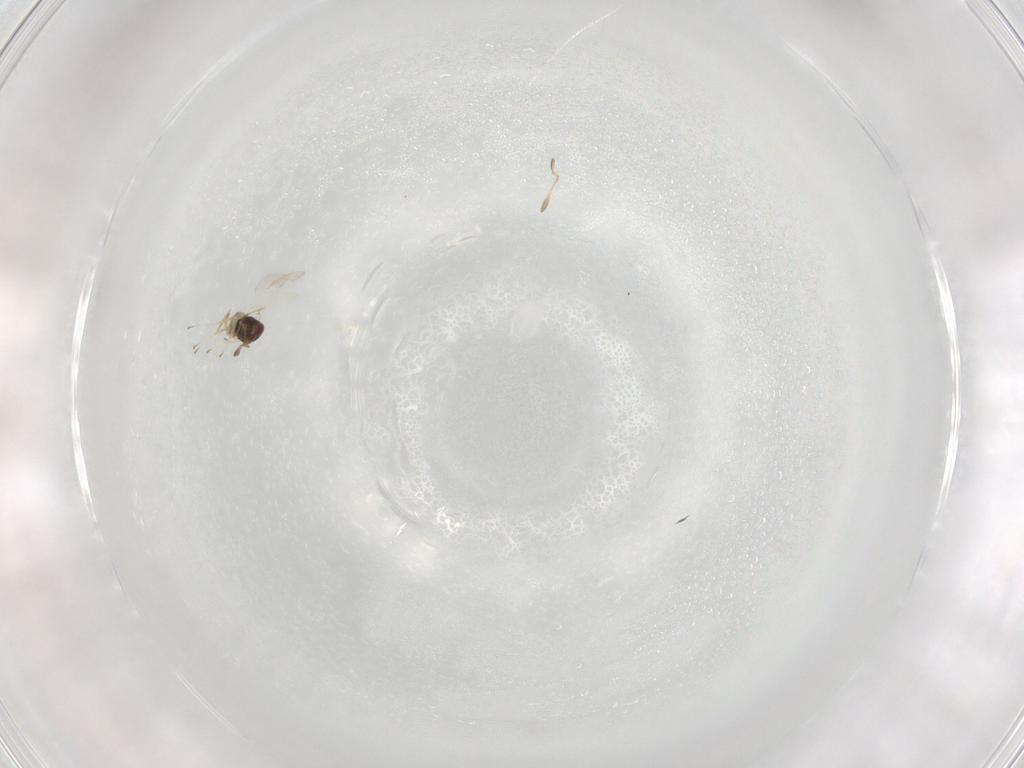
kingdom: Animalia
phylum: Arthropoda
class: Insecta
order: Hymenoptera
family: Mymaridae
